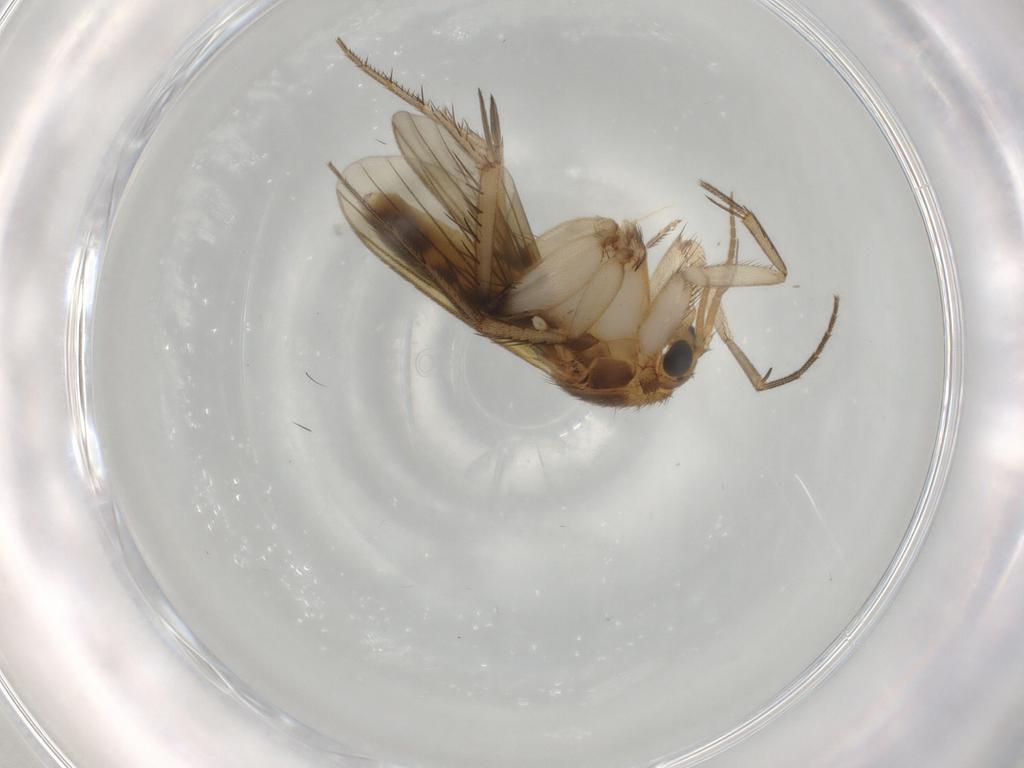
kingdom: Animalia
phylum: Arthropoda
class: Insecta
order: Diptera
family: Mycetophilidae
